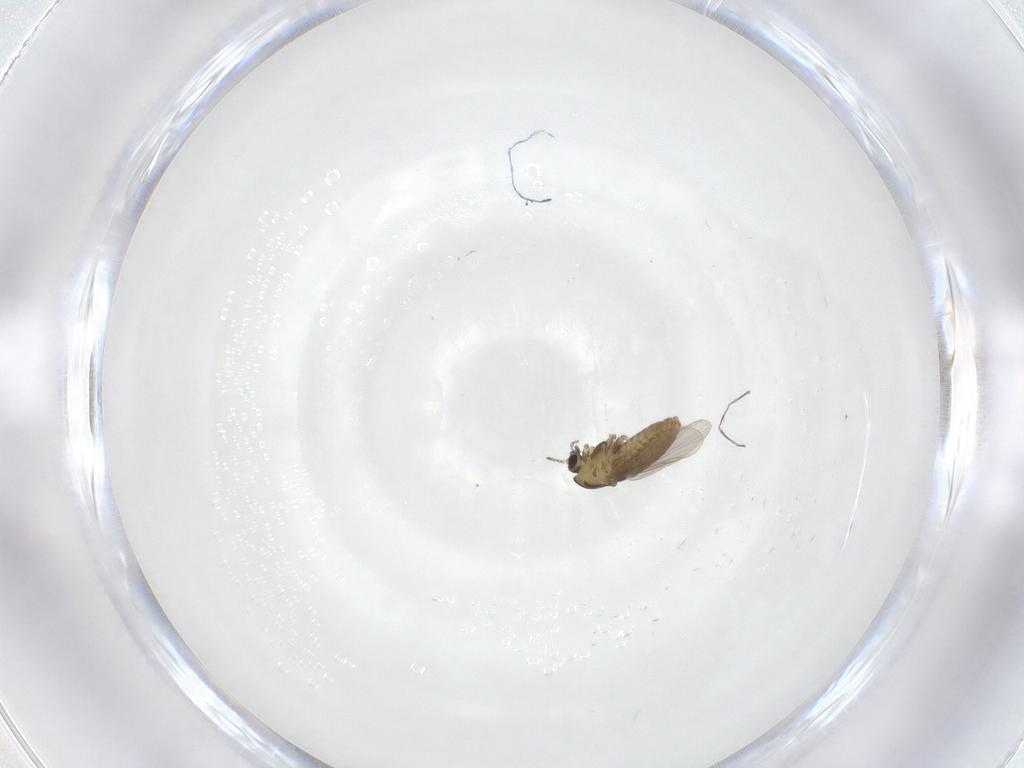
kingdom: Animalia
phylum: Arthropoda
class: Insecta
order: Diptera
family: Chironomidae
